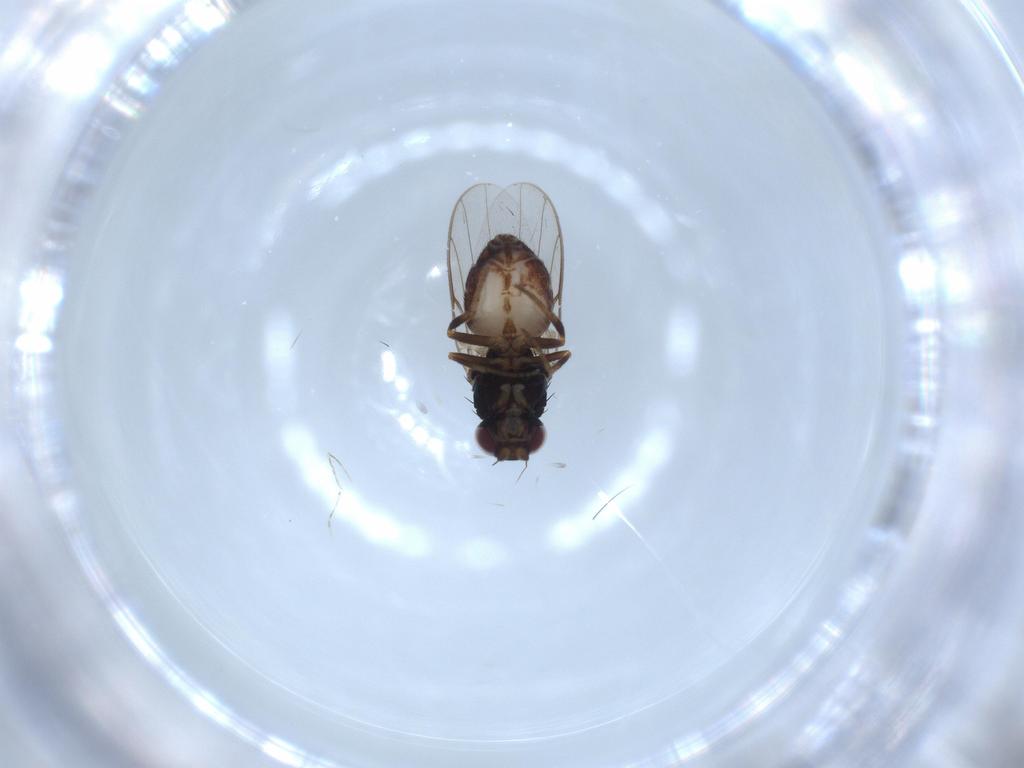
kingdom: Animalia
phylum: Arthropoda
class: Insecta
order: Diptera
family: Chloropidae
